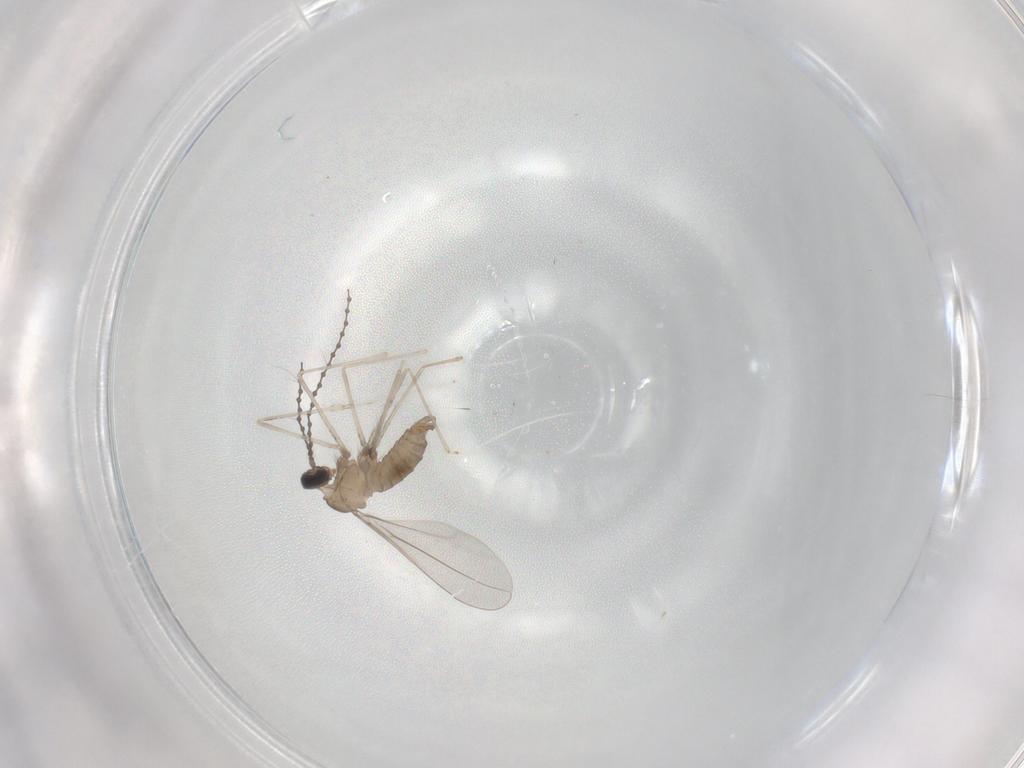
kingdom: Animalia
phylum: Arthropoda
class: Insecta
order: Diptera
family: Cecidomyiidae
